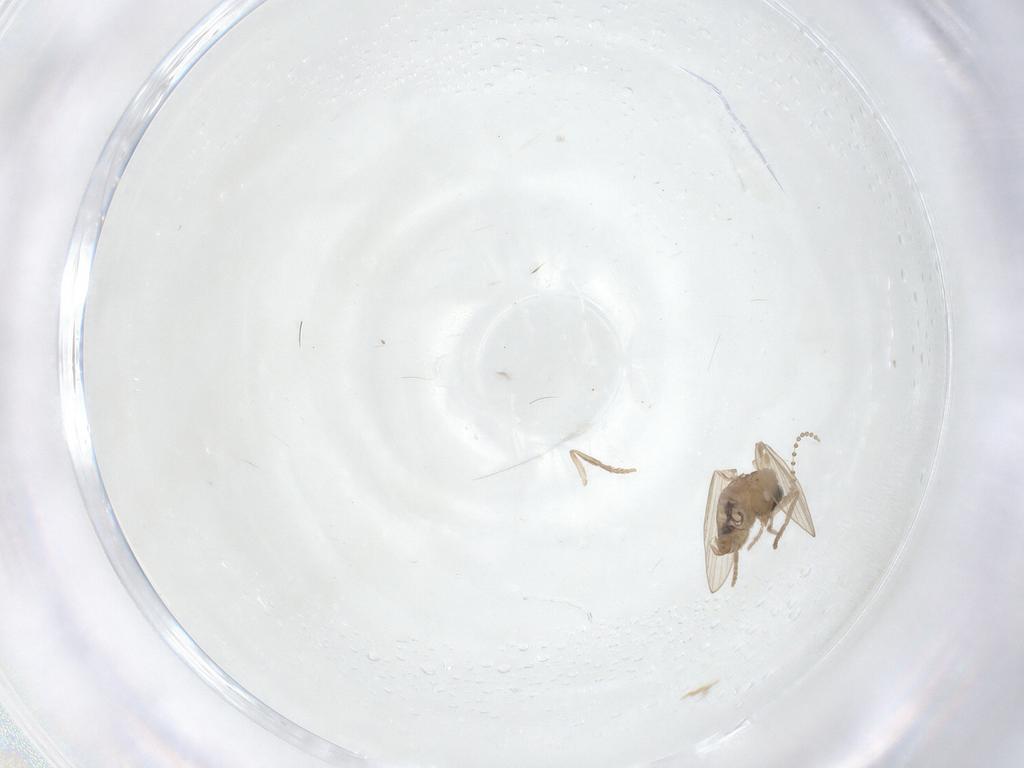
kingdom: Animalia
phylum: Arthropoda
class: Insecta
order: Diptera
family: Psychodidae
